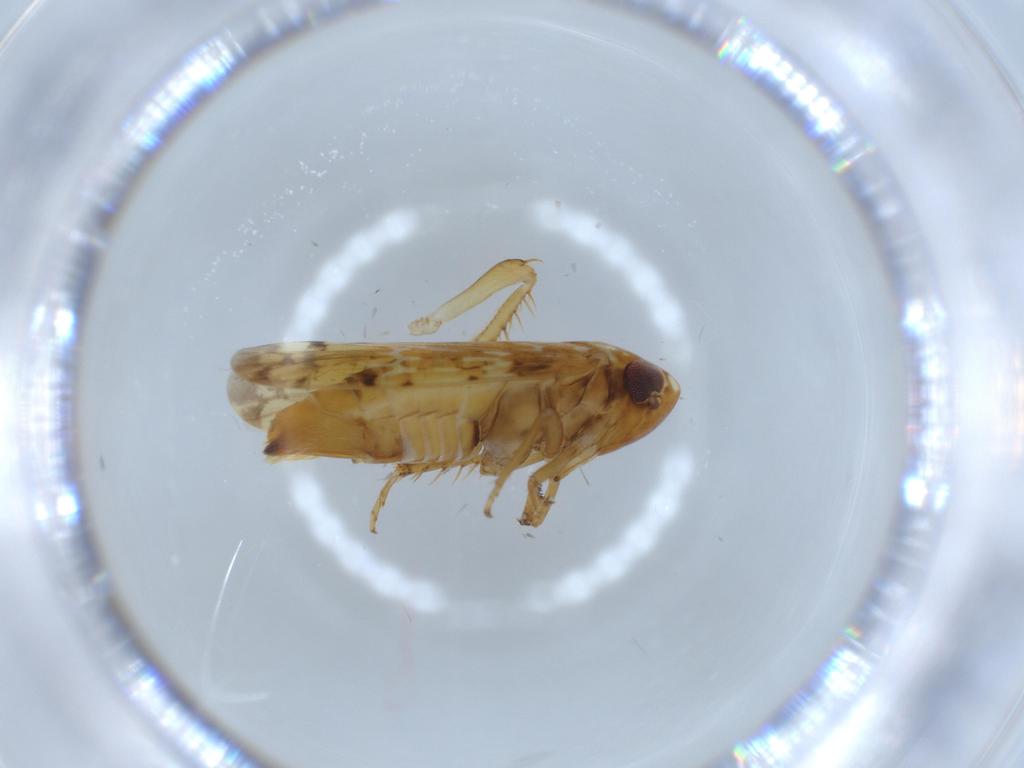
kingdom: Animalia
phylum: Arthropoda
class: Insecta
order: Hemiptera
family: Cicadellidae
